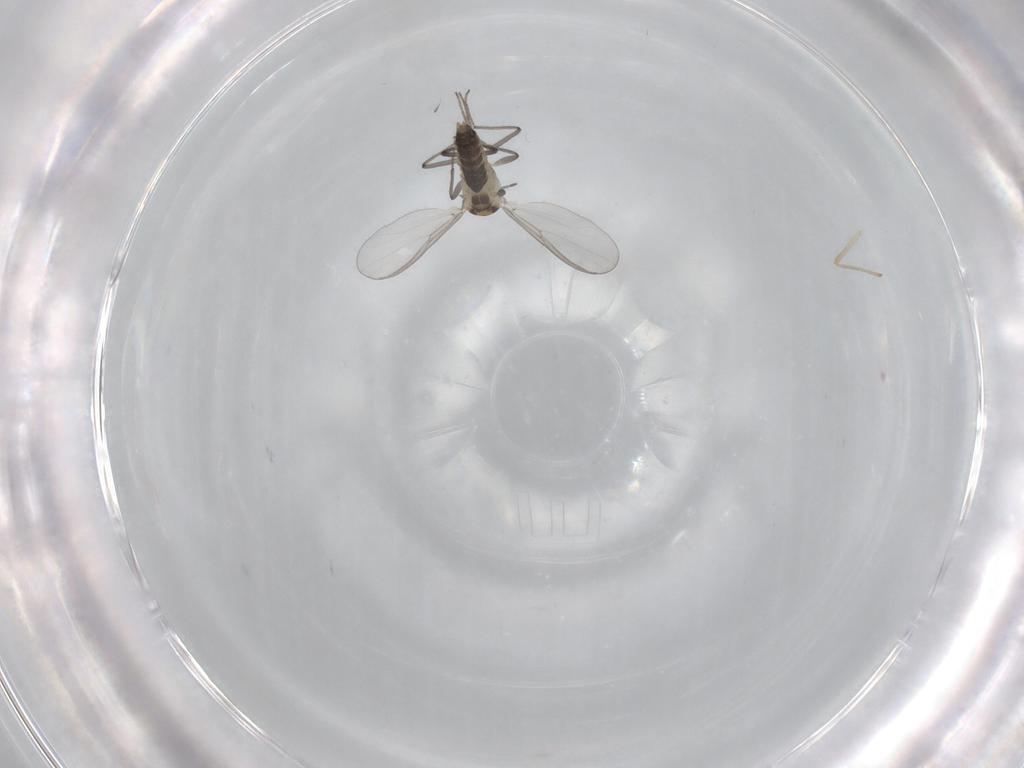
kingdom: Animalia
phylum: Arthropoda
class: Insecta
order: Diptera
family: Chironomidae
